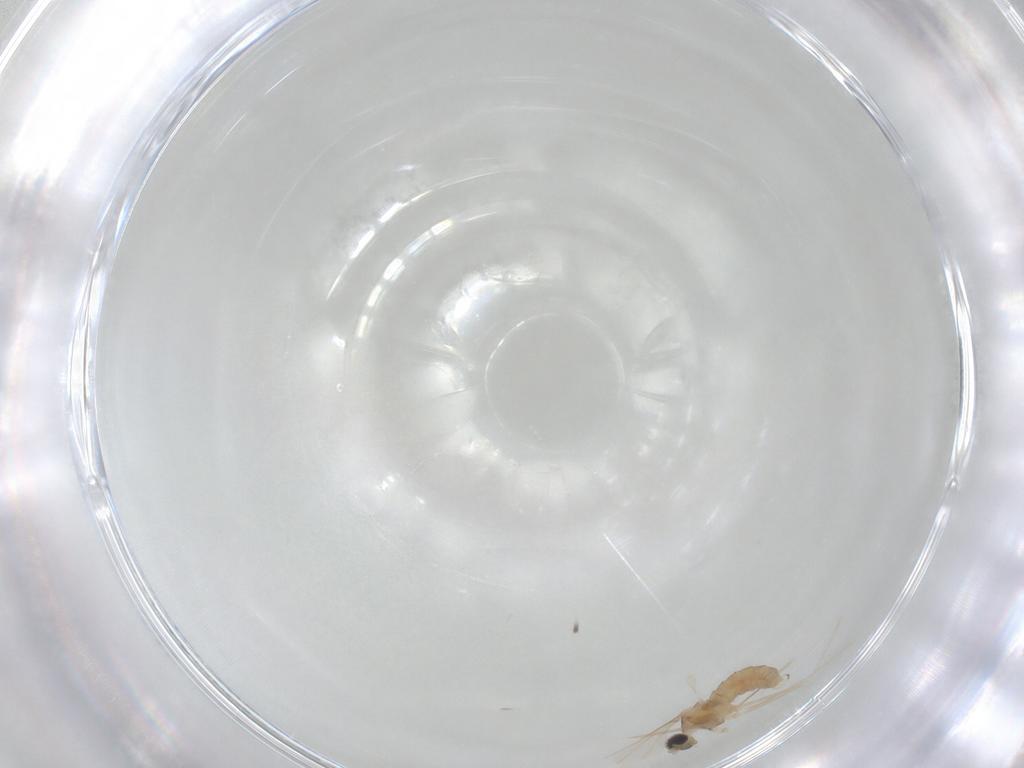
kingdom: Animalia
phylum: Arthropoda
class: Insecta
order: Diptera
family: Cecidomyiidae
